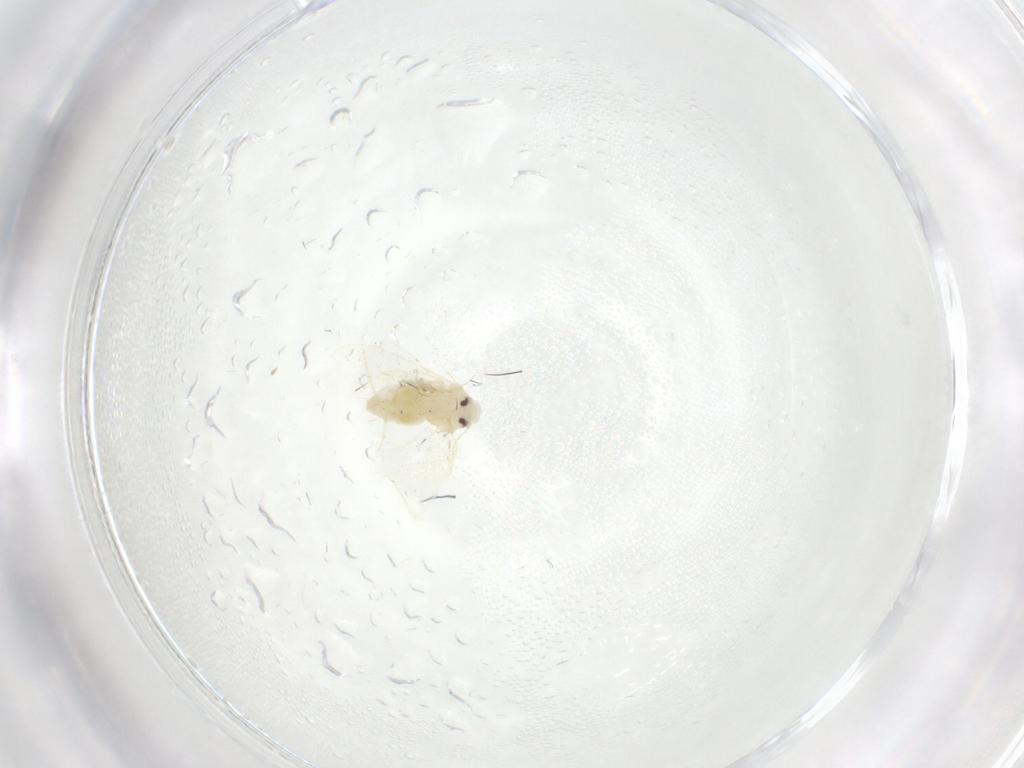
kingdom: Animalia
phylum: Arthropoda
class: Insecta
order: Hemiptera
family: Aleyrodidae
